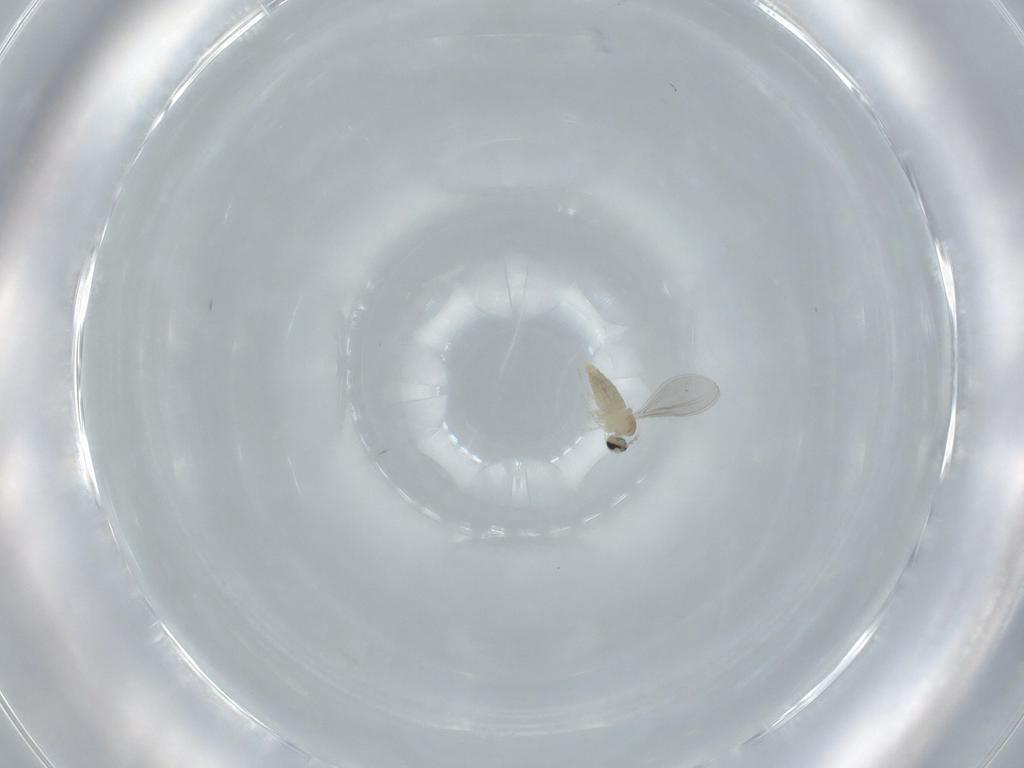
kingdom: Animalia
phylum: Arthropoda
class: Insecta
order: Diptera
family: Cecidomyiidae
